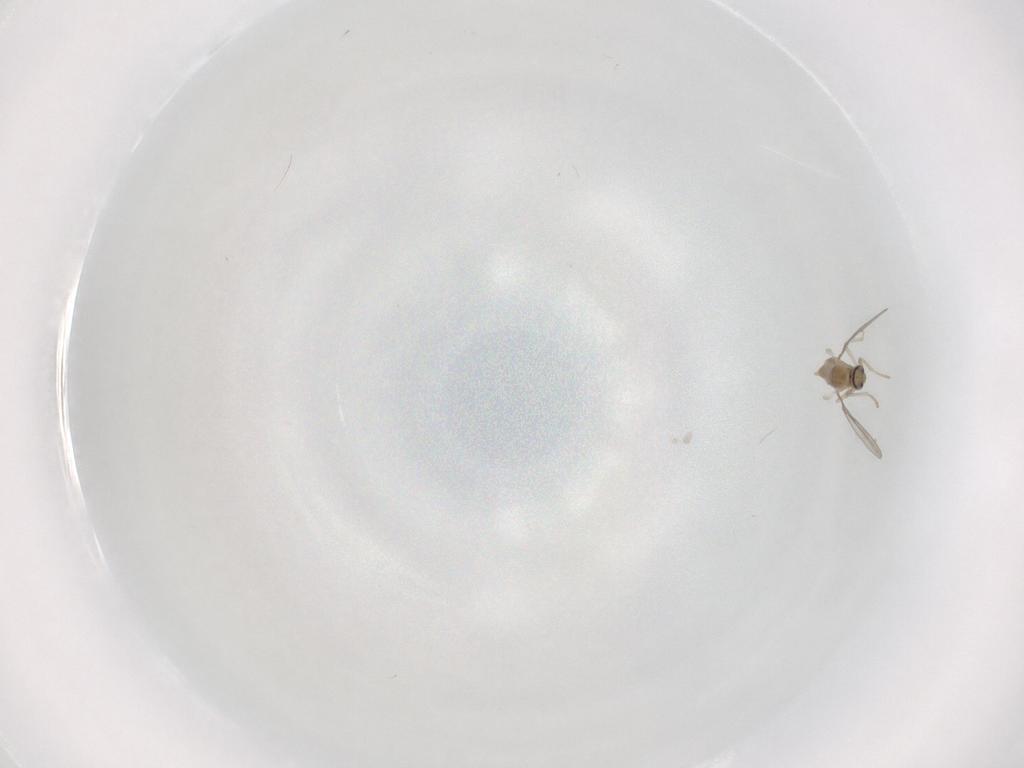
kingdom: Animalia
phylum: Arthropoda
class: Insecta
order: Diptera
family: Cecidomyiidae
